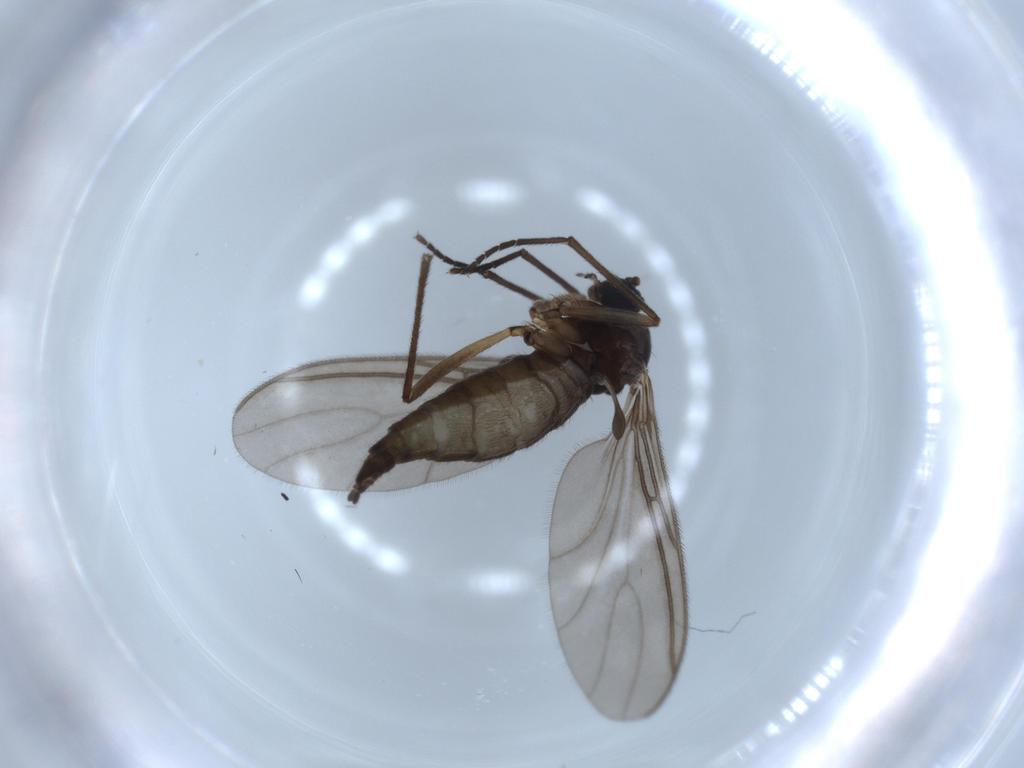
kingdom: Animalia
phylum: Arthropoda
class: Insecta
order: Diptera
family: Sciaridae
